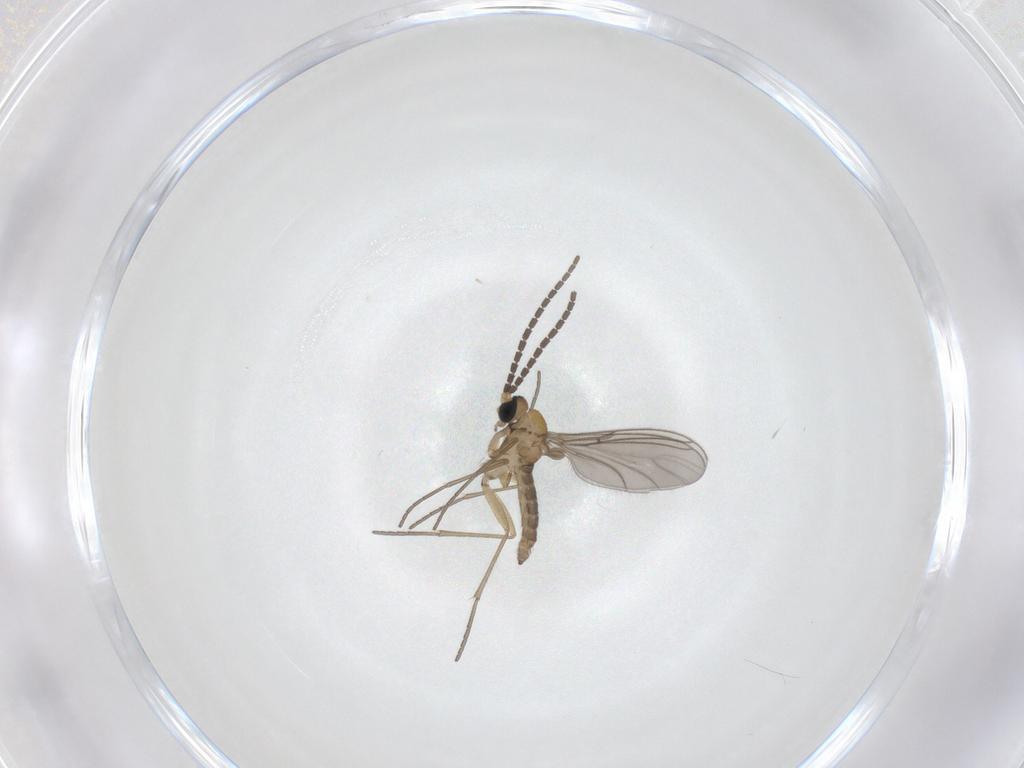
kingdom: Animalia
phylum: Arthropoda
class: Insecta
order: Diptera
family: Sciaridae
